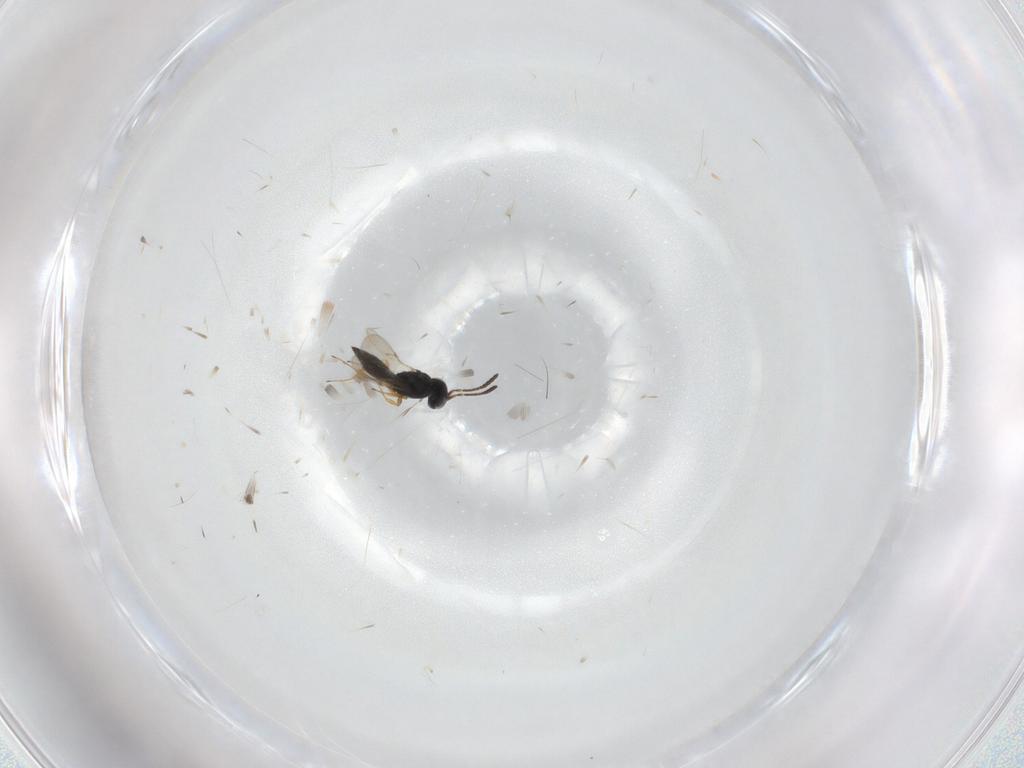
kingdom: Animalia
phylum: Arthropoda
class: Insecta
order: Hymenoptera
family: Scelionidae
